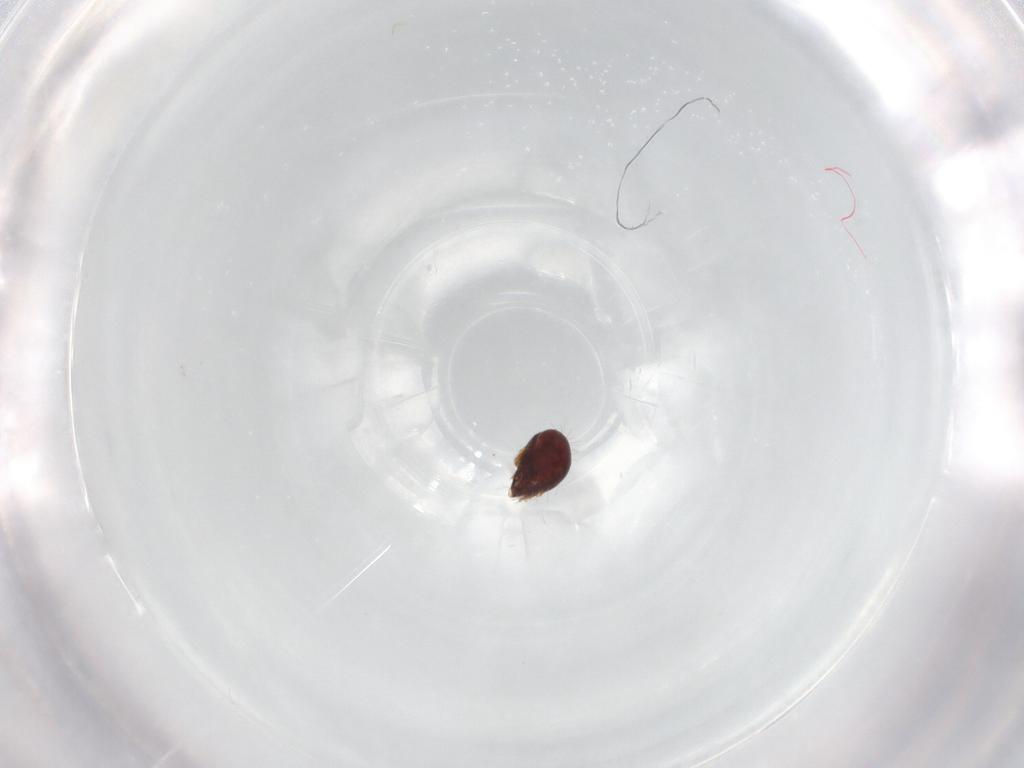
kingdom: Animalia
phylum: Arthropoda
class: Arachnida
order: Sarcoptiformes
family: Humerobatidae
